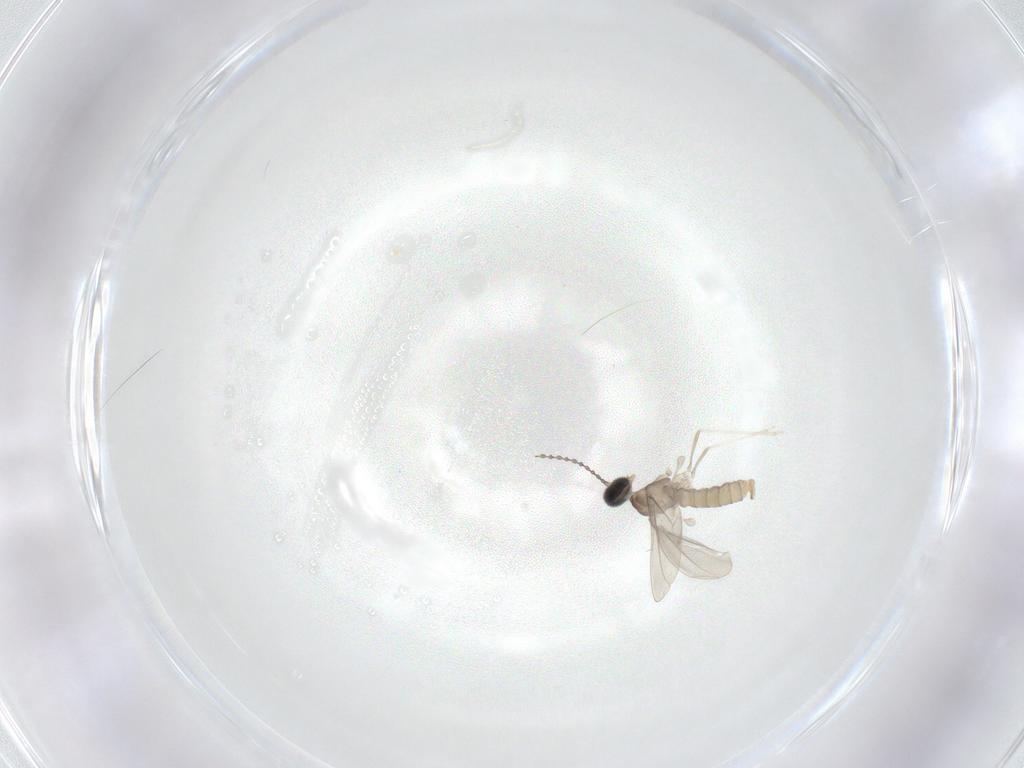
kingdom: Animalia
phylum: Arthropoda
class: Insecta
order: Diptera
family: Cecidomyiidae
